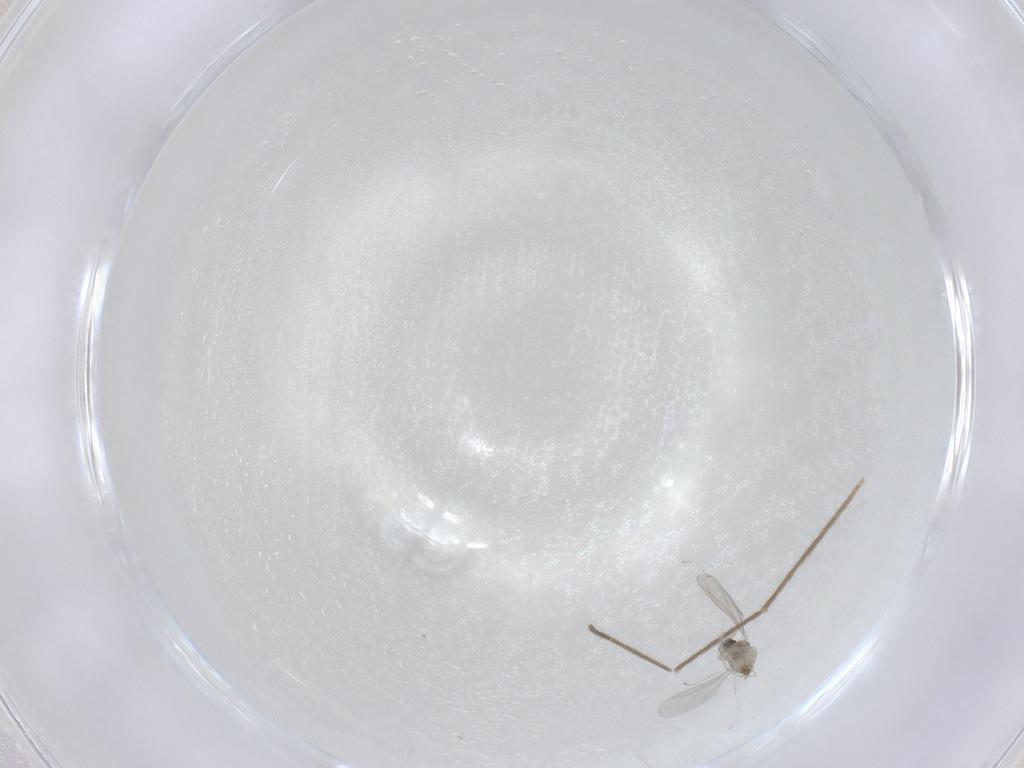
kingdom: Animalia
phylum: Arthropoda
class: Insecta
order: Diptera
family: Cecidomyiidae
